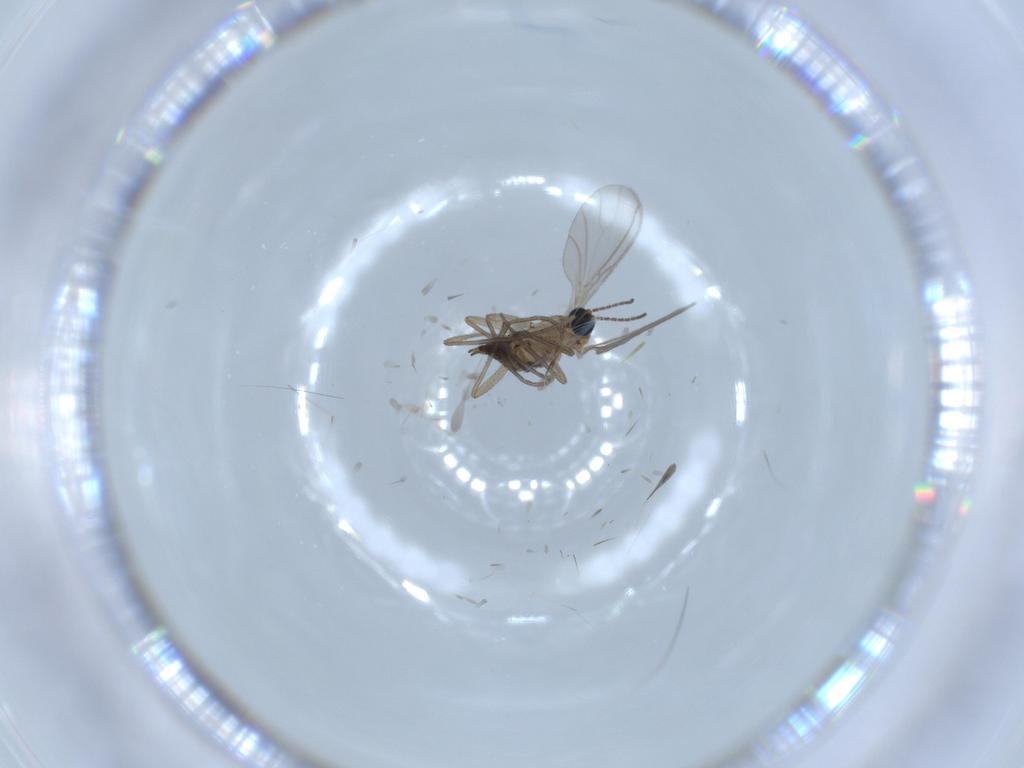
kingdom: Animalia
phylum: Arthropoda
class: Insecta
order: Diptera
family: Sciaridae
